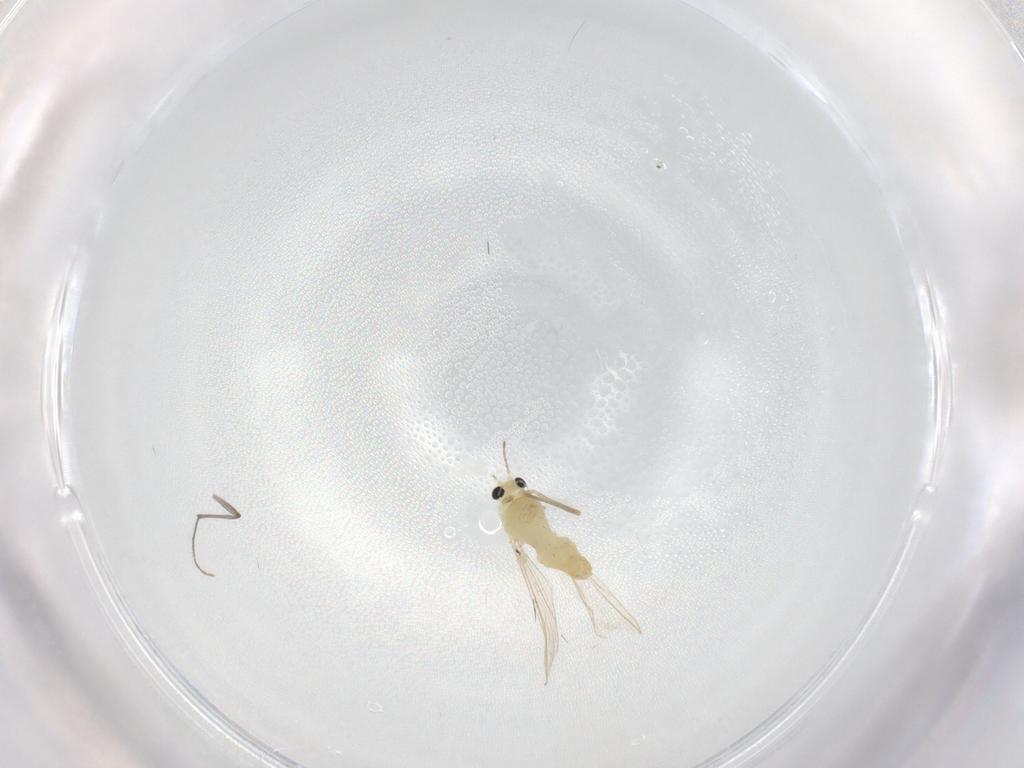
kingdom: Animalia
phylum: Arthropoda
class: Insecta
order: Diptera
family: Chironomidae
